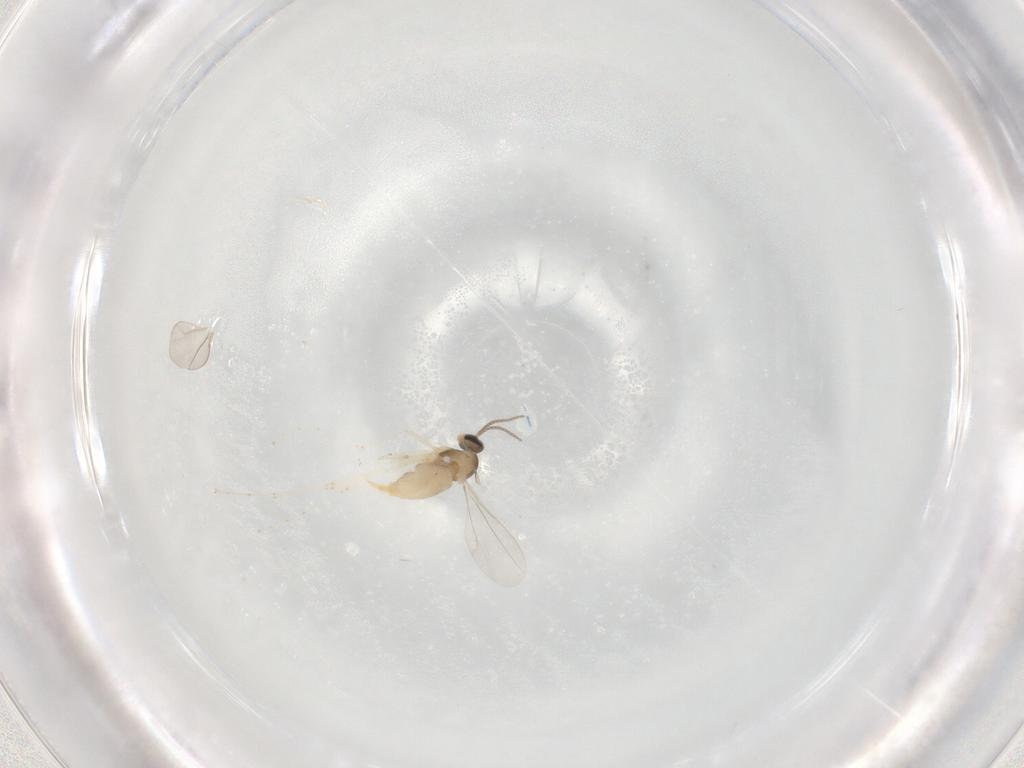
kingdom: Animalia
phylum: Arthropoda
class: Insecta
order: Diptera
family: Cecidomyiidae
